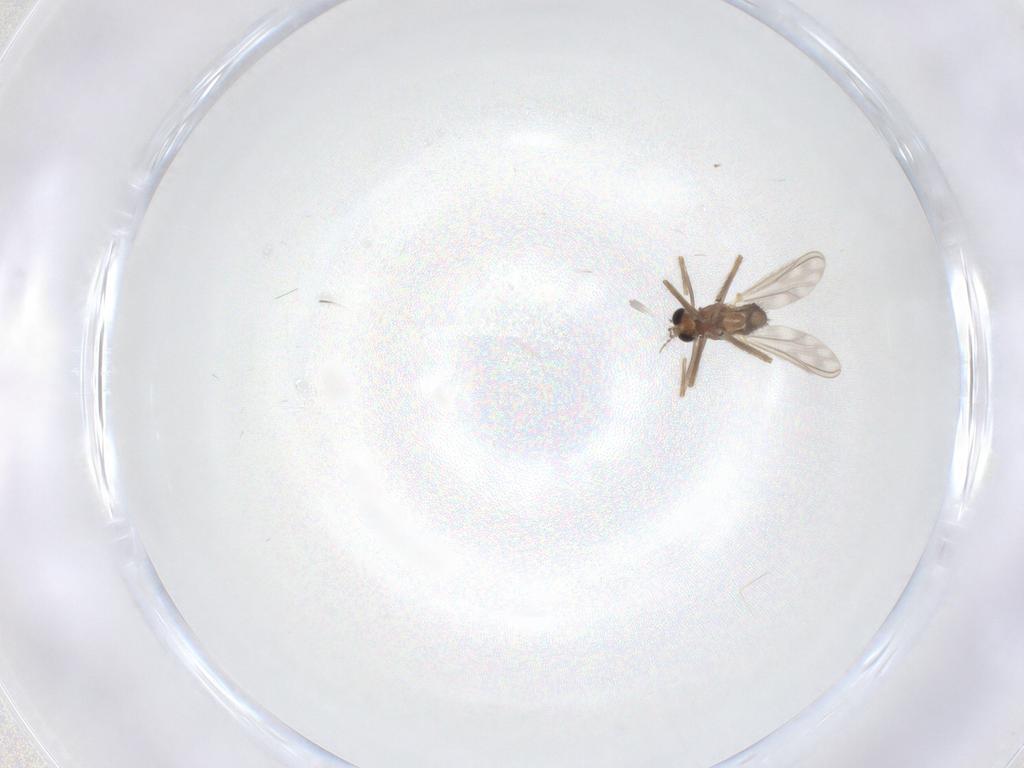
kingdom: Animalia
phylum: Arthropoda
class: Insecta
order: Diptera
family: Chironomidae
